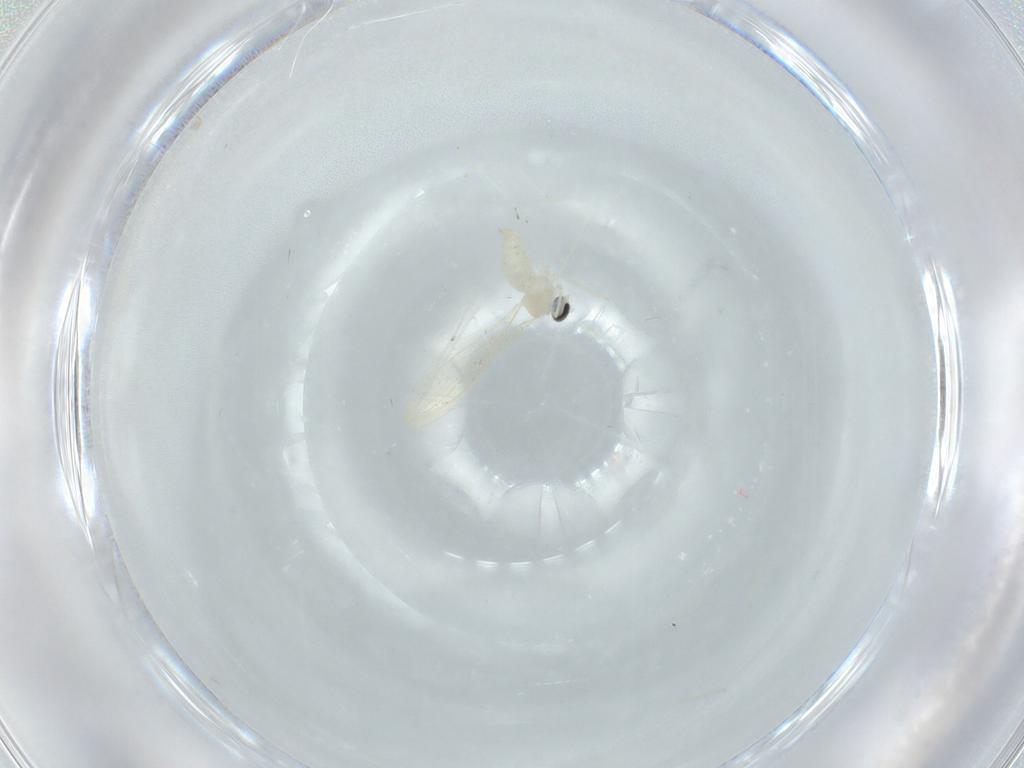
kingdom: Animalia
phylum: Arthropoda
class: Insecta
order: Diptera
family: Cecidomyiidae
